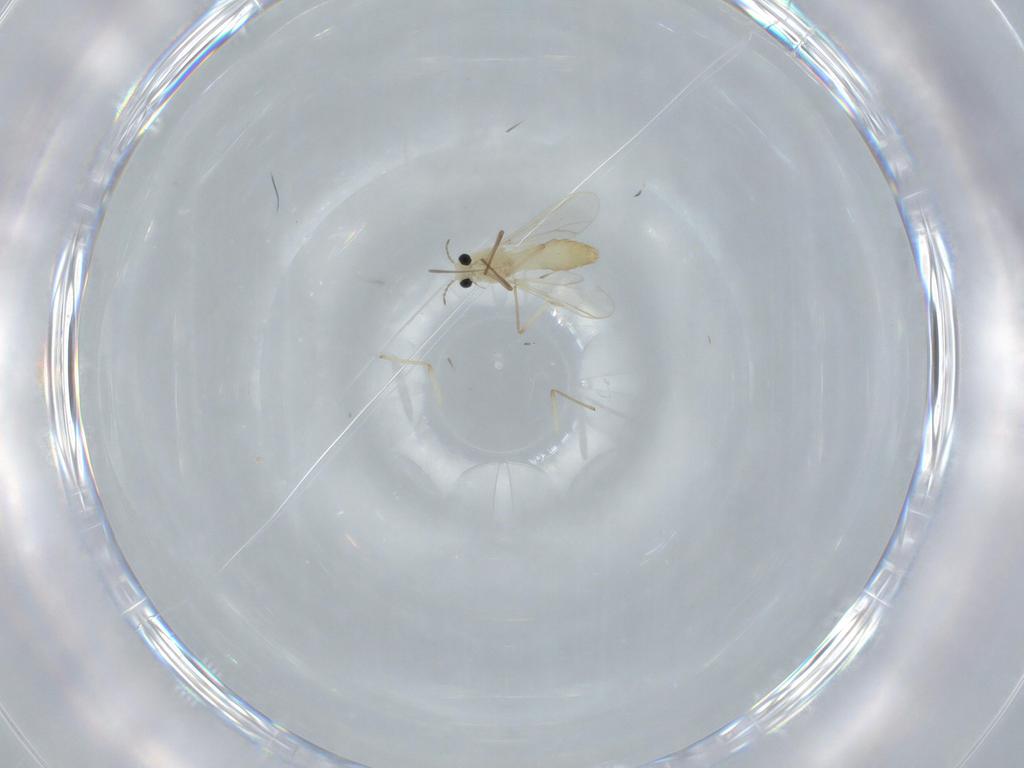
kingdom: Animalia
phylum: Arthropoda
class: Insecta
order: Diptera
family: Chironomidae
